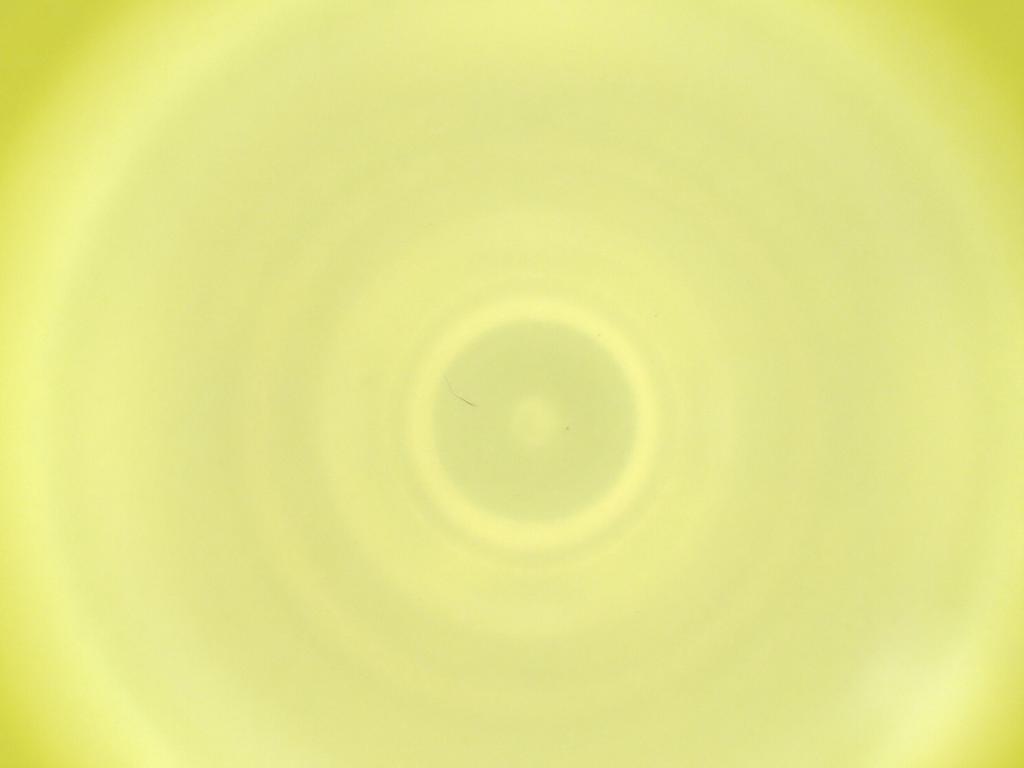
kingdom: Animalia
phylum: Arthropoda
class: Insecta
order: Diptera
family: Cecidomyiidae
